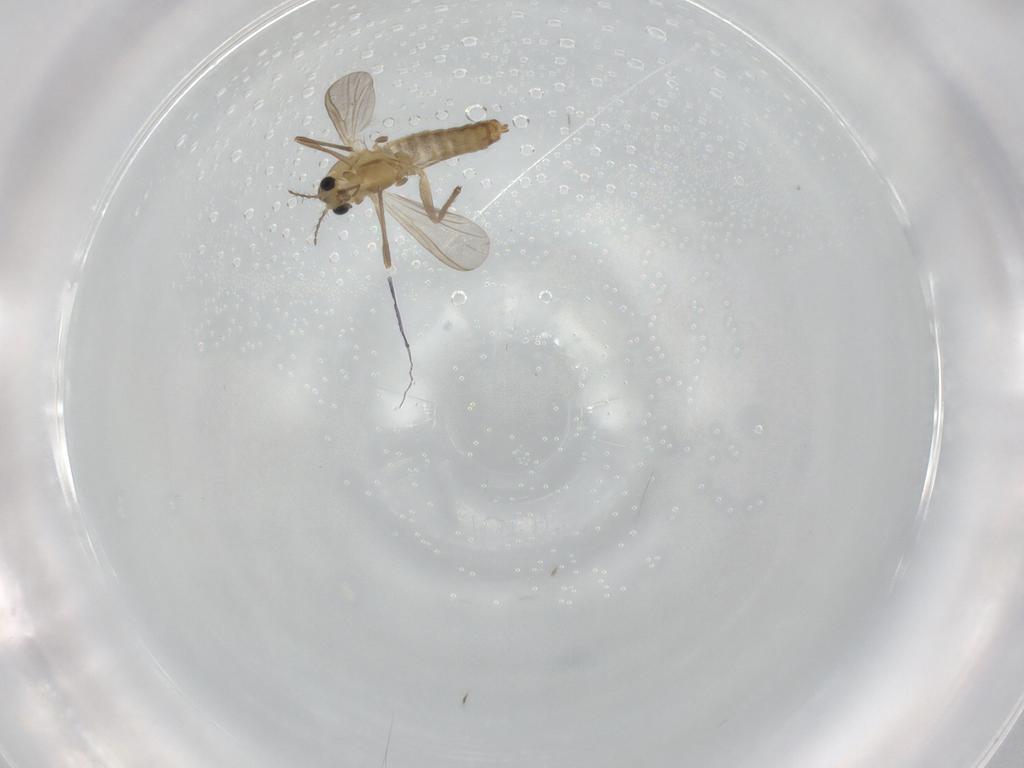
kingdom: Animalia
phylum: Arthropoda
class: Insecta
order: Diptera
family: Chironomidae
